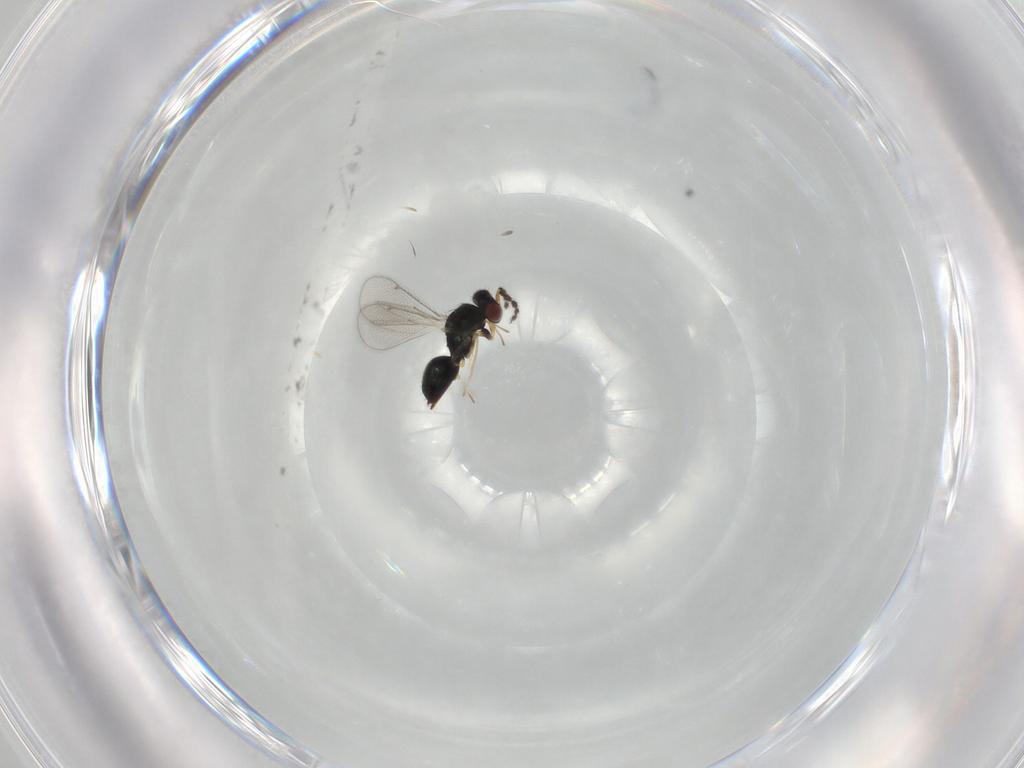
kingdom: Animalia
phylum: Arthropoda
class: Insecta
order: Hymenoptera
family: Eulophidae
